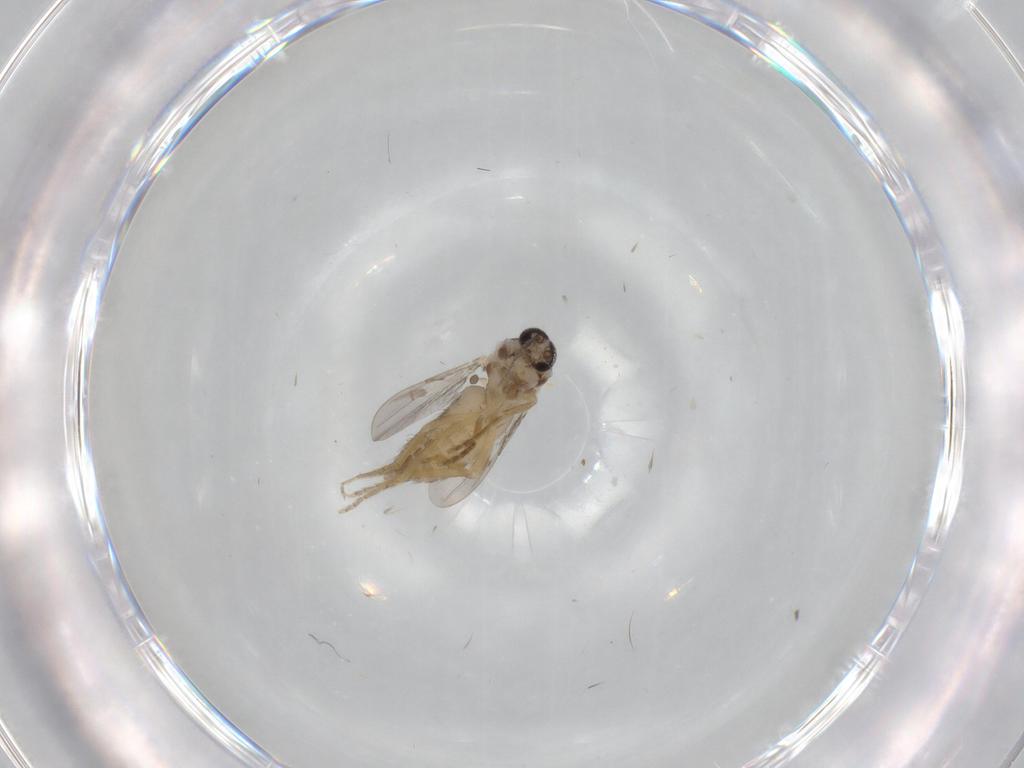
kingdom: Animalia
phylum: Arthropoda
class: Insecta
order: Diptera
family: Ceratopogonidae
